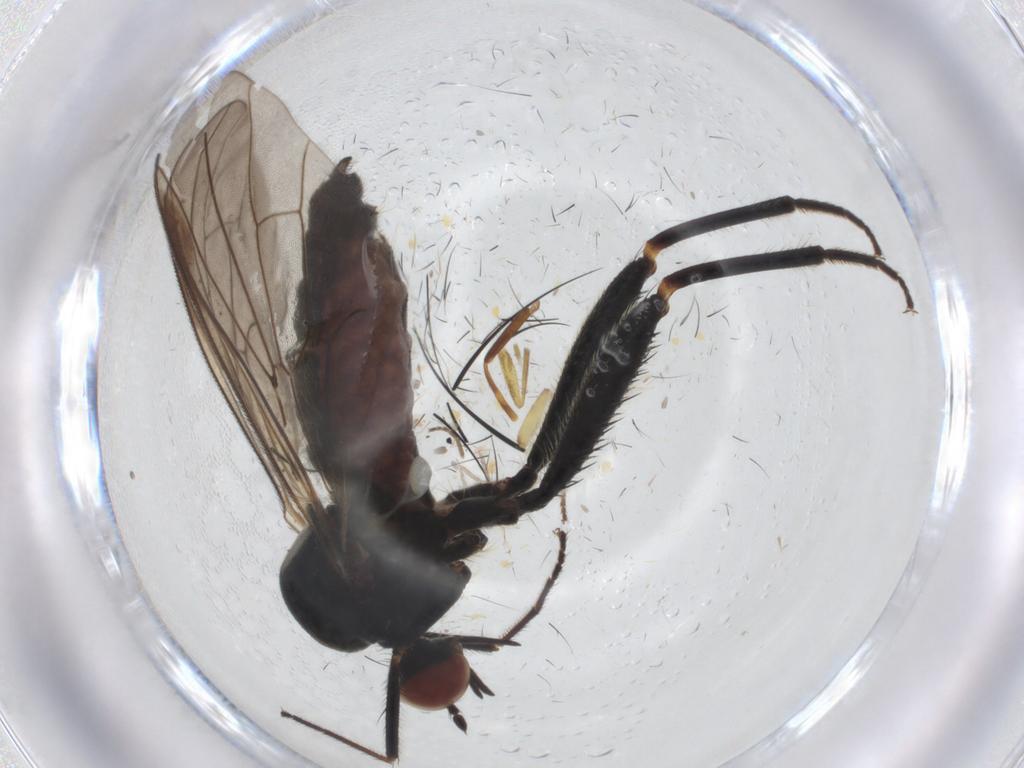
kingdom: Animalia
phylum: Arthropoda
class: Insecta
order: Diptera
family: Hybotidae
